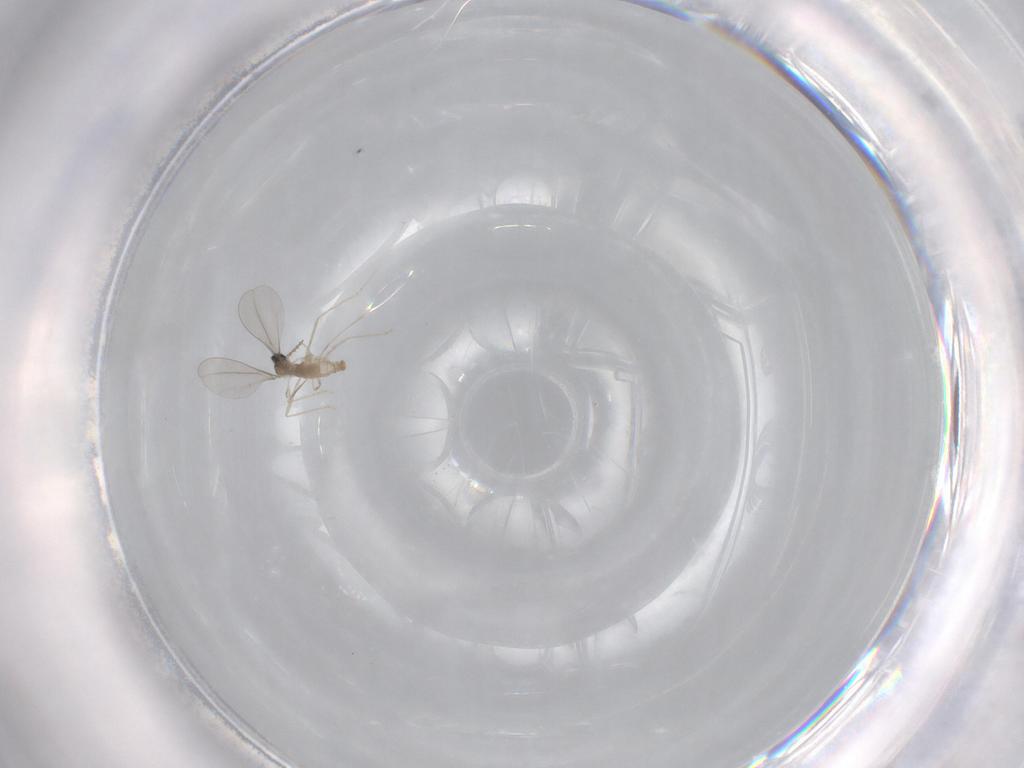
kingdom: Animalia
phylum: Arthropoda
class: Insecta
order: Diptera
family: Cecidomyiidae
